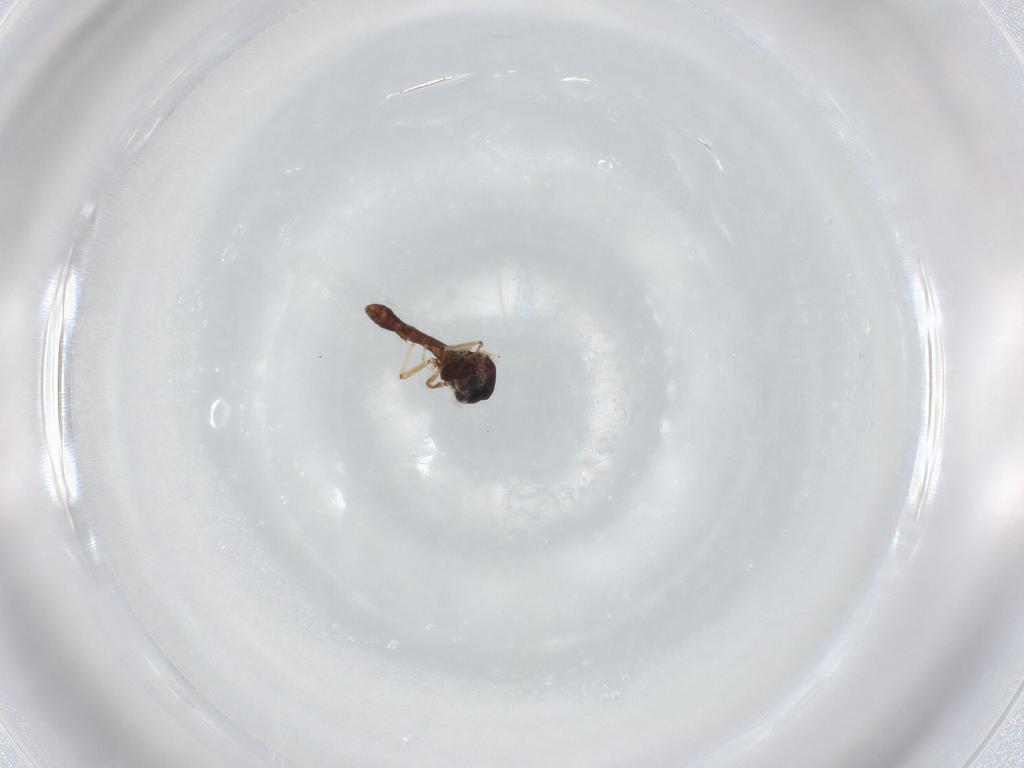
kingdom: Animalia
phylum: Arthropoda
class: Insecta
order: Diptera
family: Ceratopogonidae
